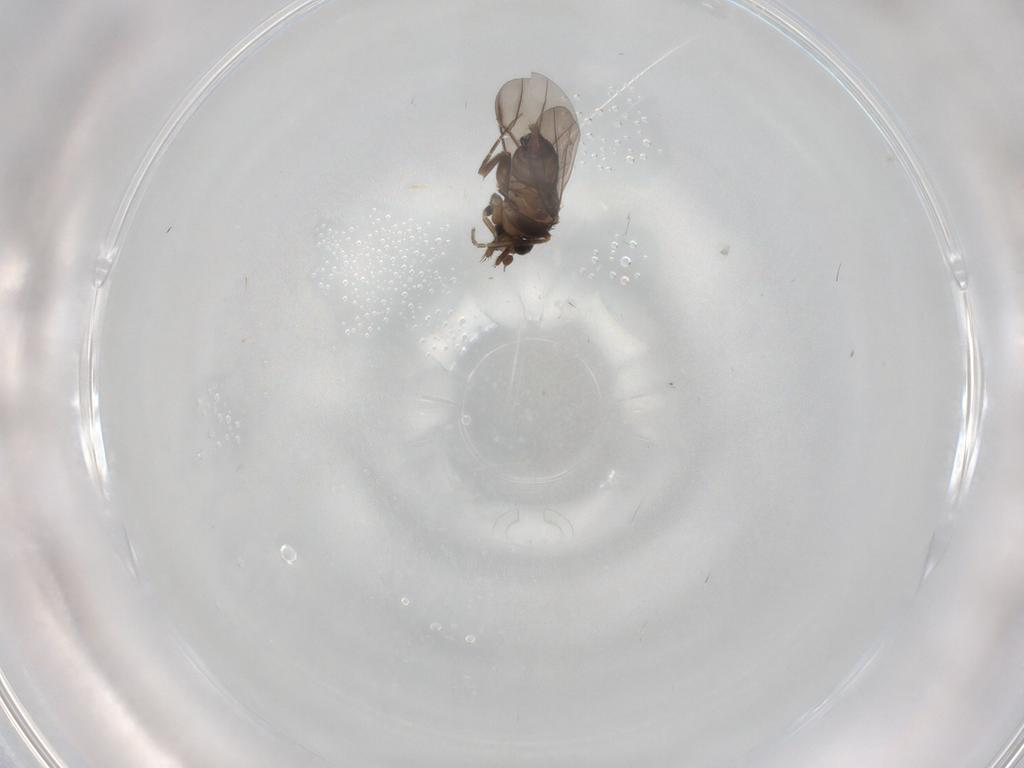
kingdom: Animalia
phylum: Arthropoda
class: Insecta
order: Diptera
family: Phoridae
